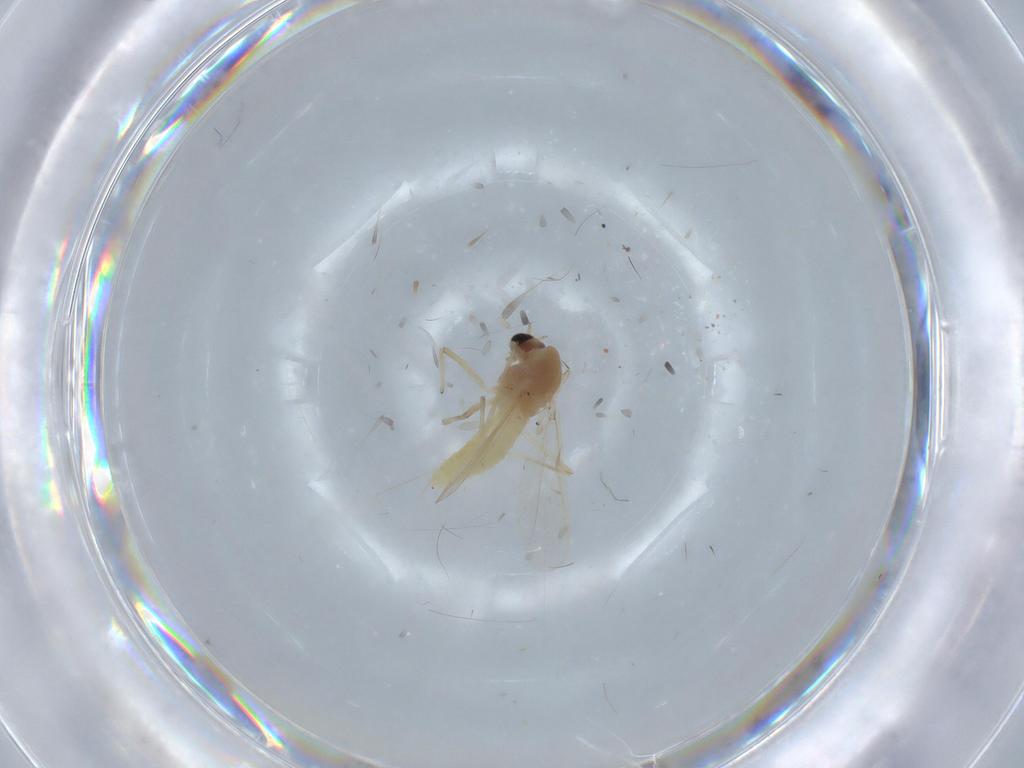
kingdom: Animalia
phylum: Arthropoda
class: Insecta
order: Diptera
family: Chironomidae
